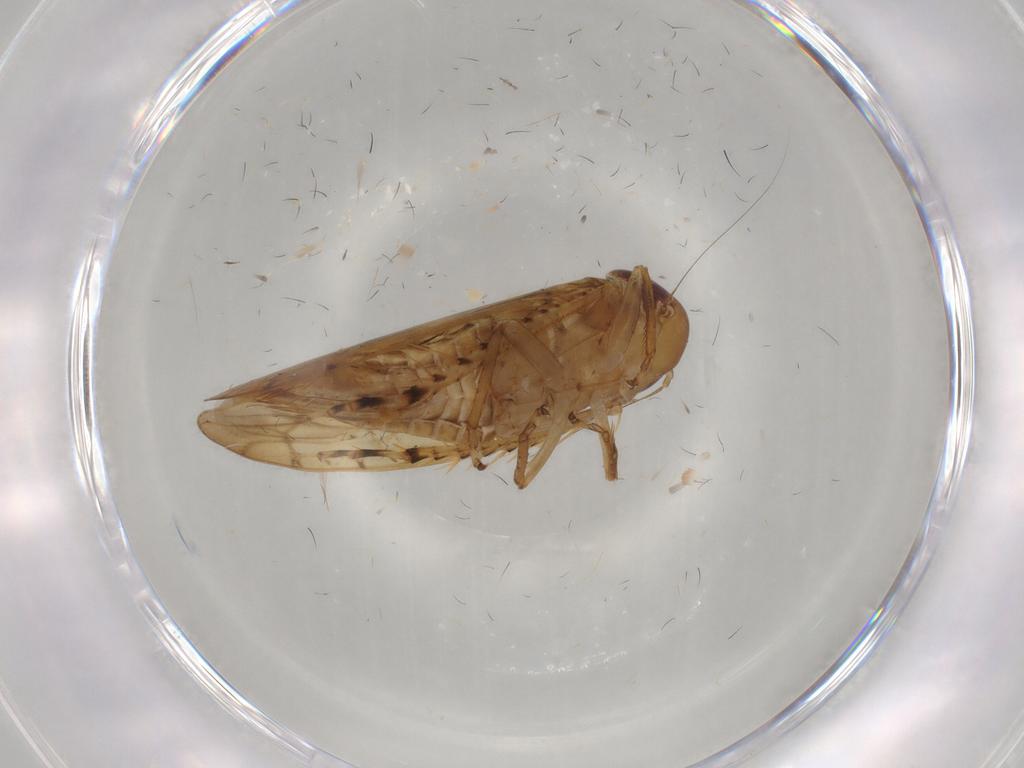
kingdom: Animalia
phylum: Arthropoda
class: Insecta
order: Hemiptera
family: Cicadellidae
